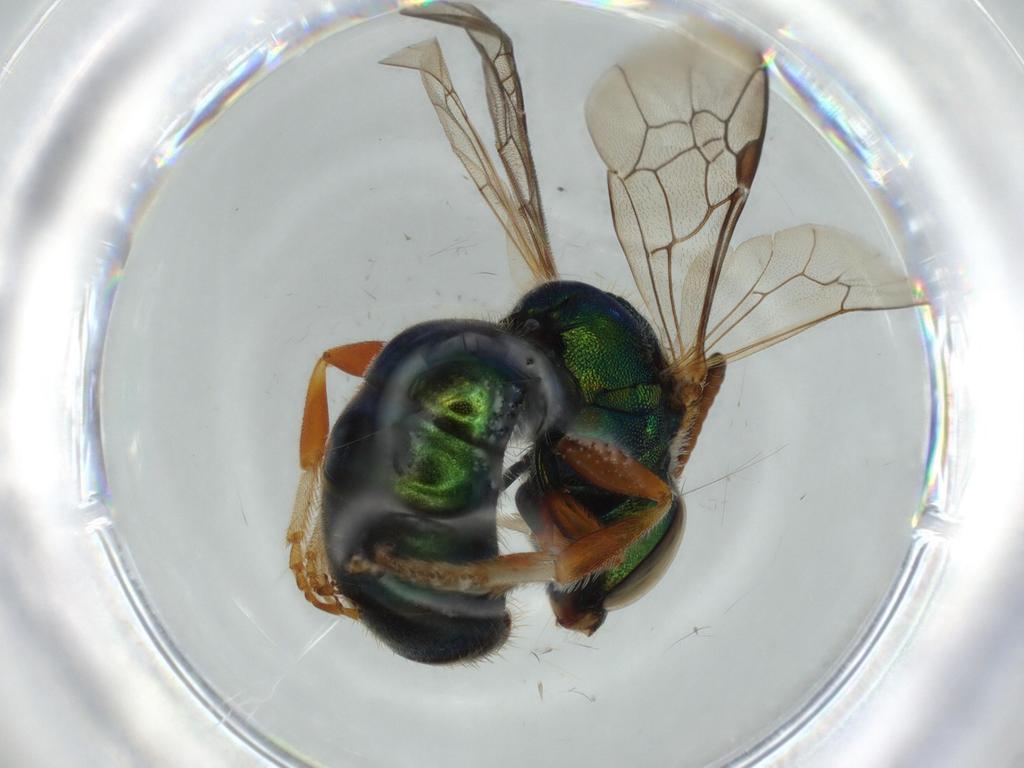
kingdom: Animalia
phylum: Arthropoda
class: Insecta
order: Hymenoptera
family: Halictidae
